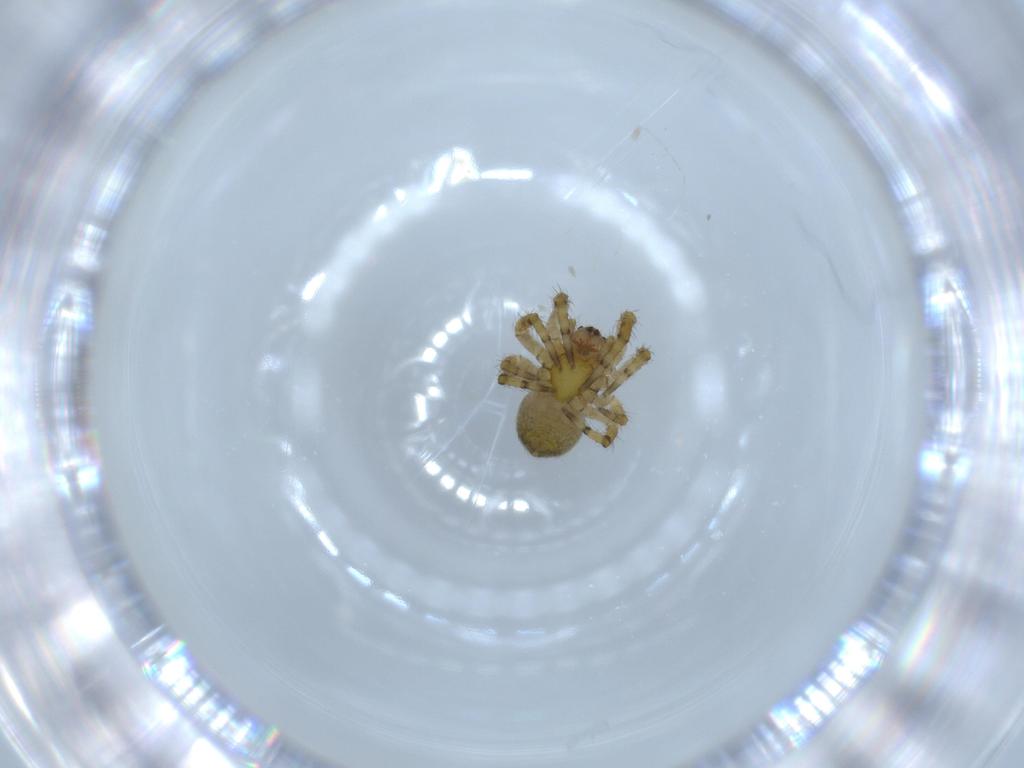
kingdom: Animalia
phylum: Arthropoda
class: Arachnida
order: Araneae
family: Araneidae
